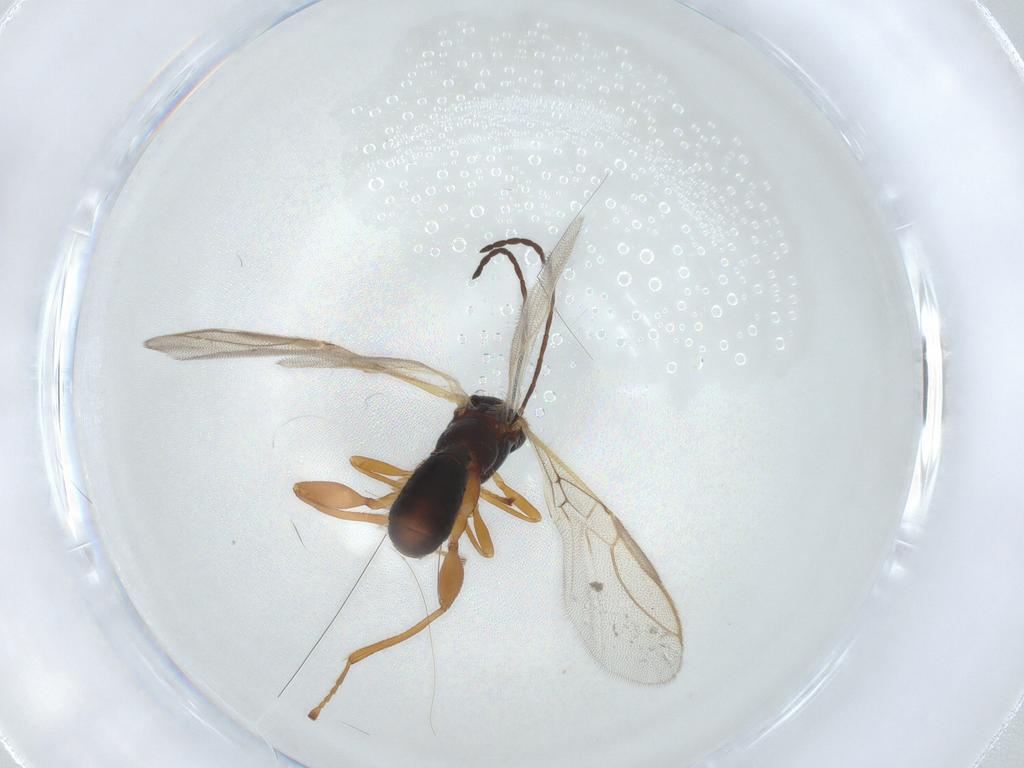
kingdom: Animalia
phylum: Arthropoda
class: Insecta
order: Hymenoptera
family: Braconidae
